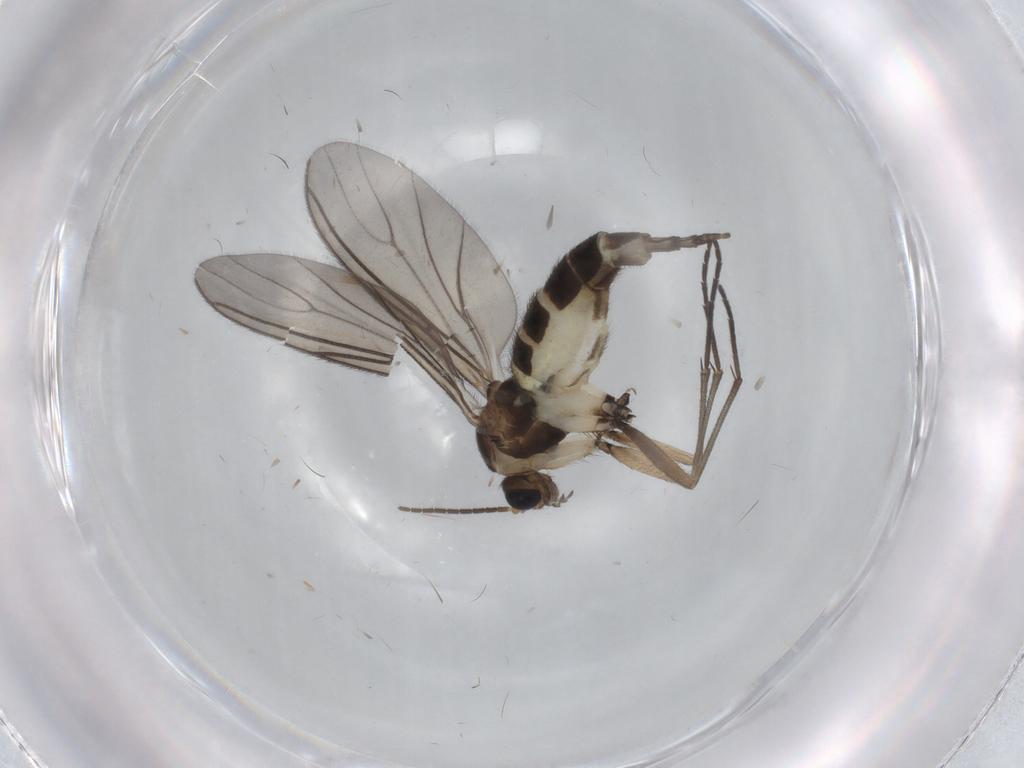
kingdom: Animalia
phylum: Arthropoda
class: Insecta
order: Diptera
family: Sciaridae
